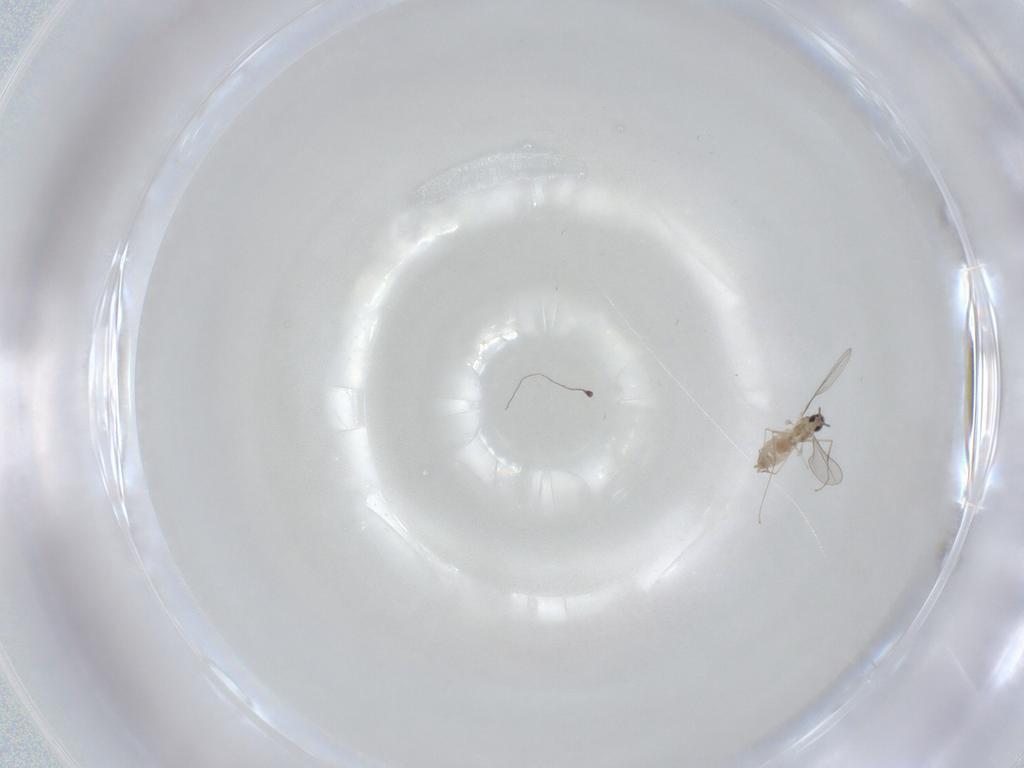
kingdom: Animalia
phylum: Arthropoda
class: Insecta
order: Diptera
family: Cecidomyiidae
